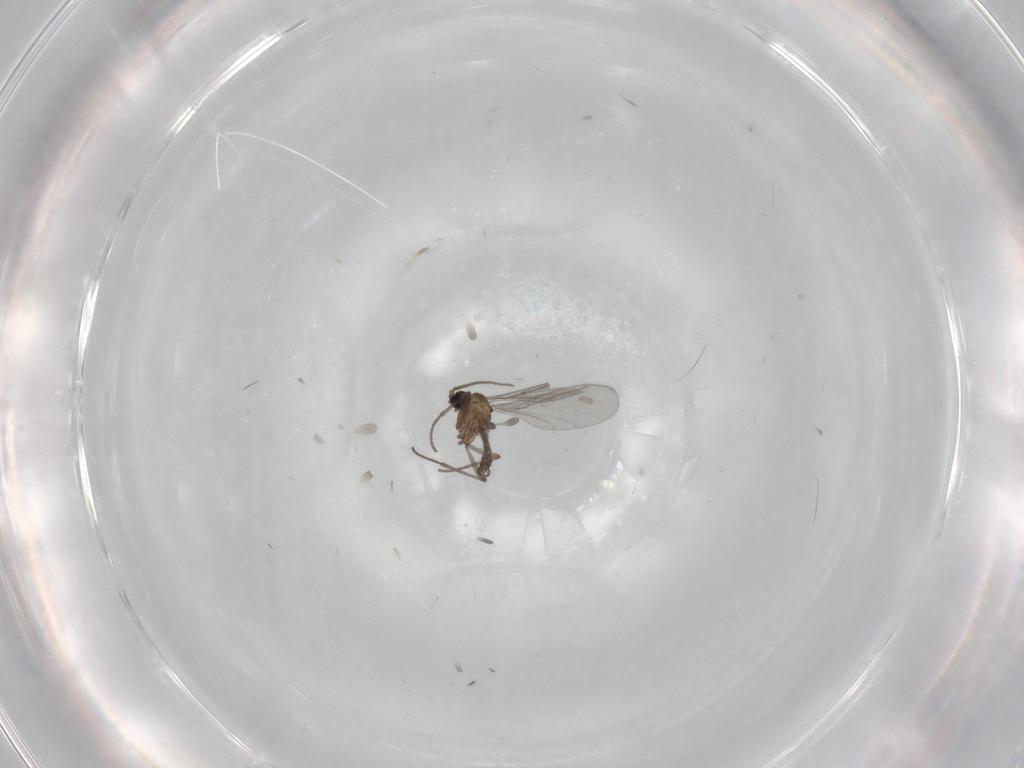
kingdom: Animalia
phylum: Arthropoda
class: Insecta
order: Diptera
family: Sciaridae
